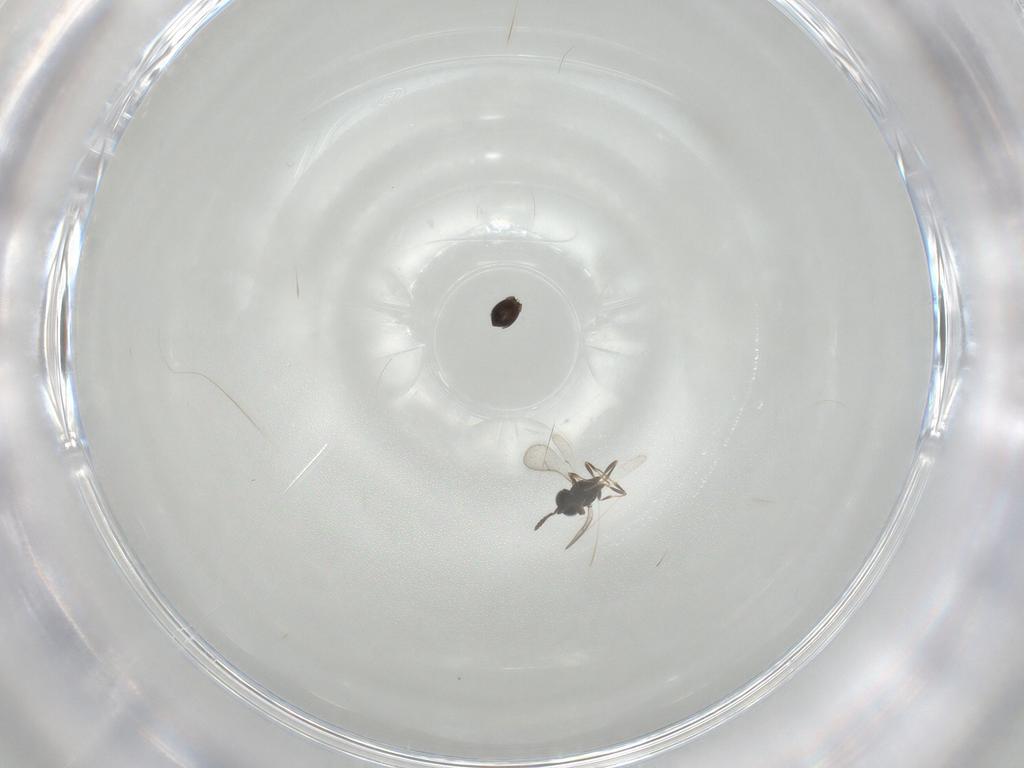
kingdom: Animalia
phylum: Arthropoda
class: Insecta
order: Hymenoptera
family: Scelionidae
